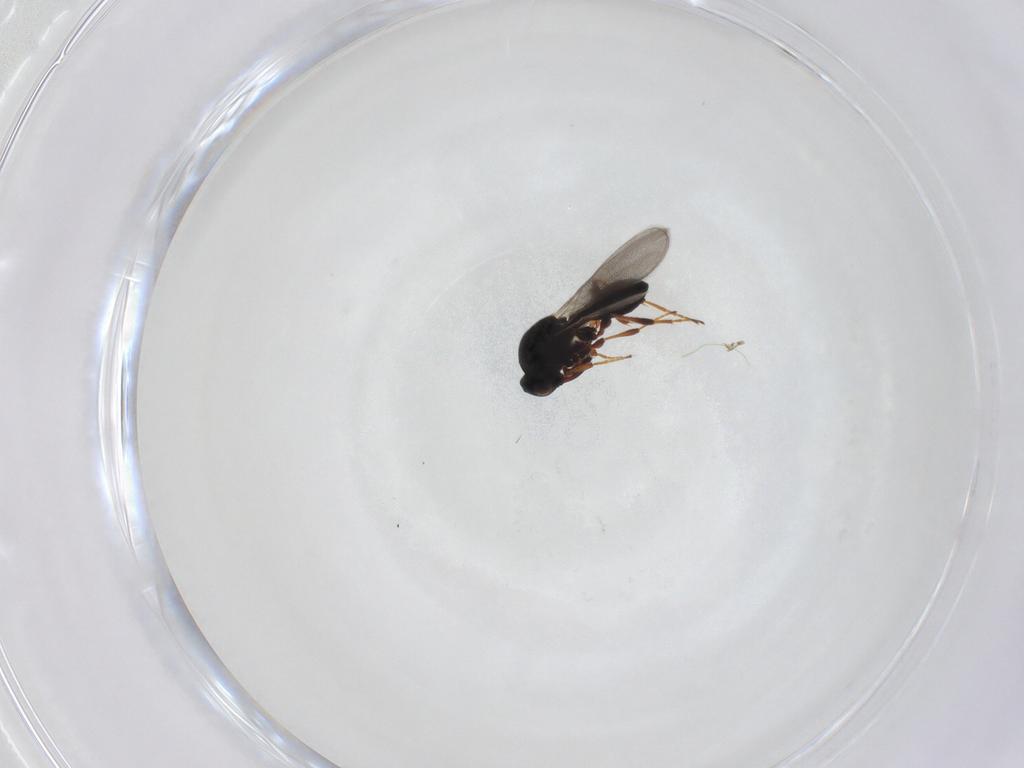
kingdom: Animalia
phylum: Arthropoda
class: Insecta
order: Hymenoptera
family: Platygastridae
